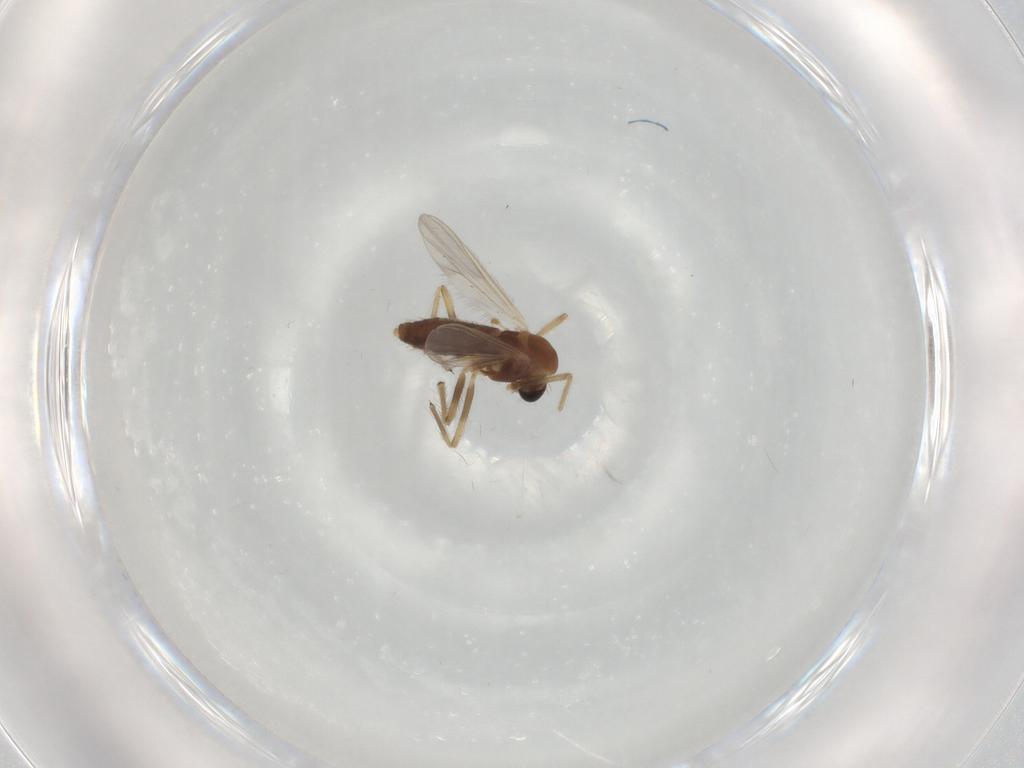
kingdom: Animalia
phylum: Arthropoda
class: Insecta
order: Diptera
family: Chironomidae
